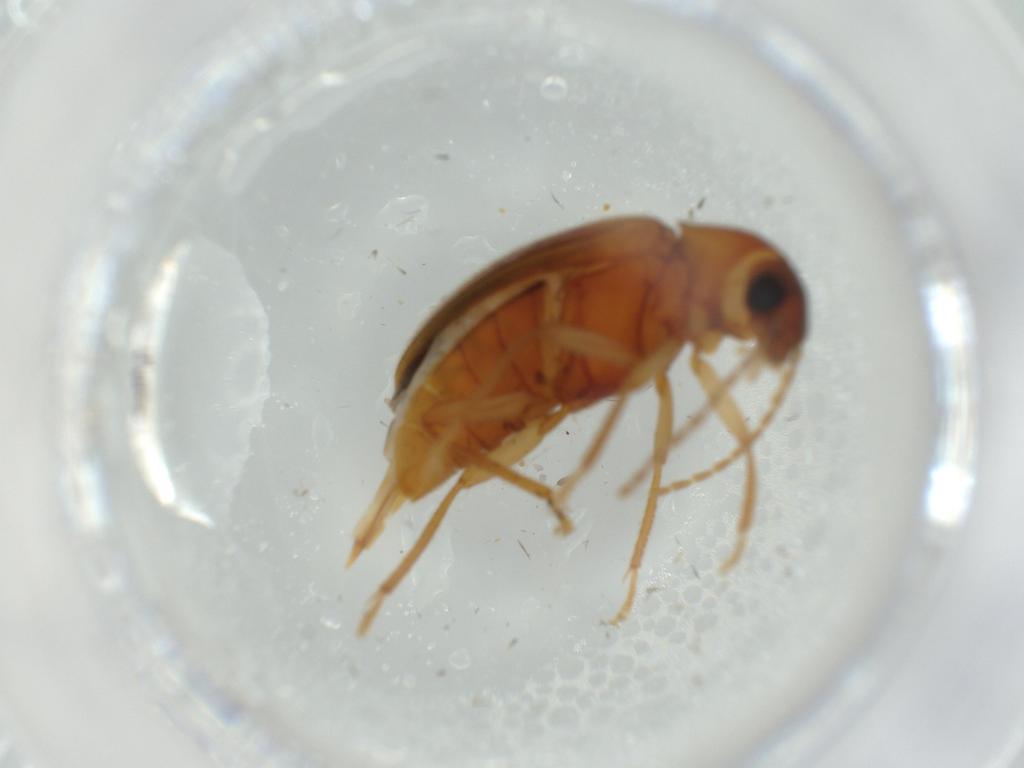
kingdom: Animalia
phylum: Arthropoda
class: Insecta
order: Coleoptera
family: Ptilodactylidae
